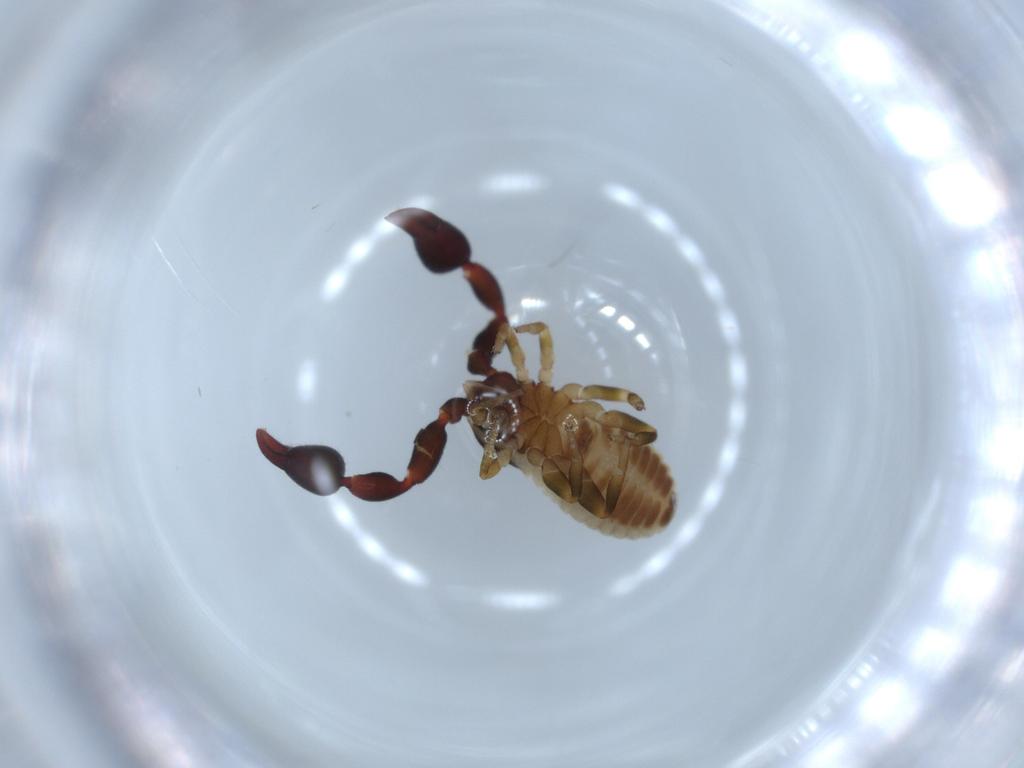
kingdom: Animalia
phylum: Arthropoda
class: Arachnida
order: Pseudoscorpiones
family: Chernetidae
